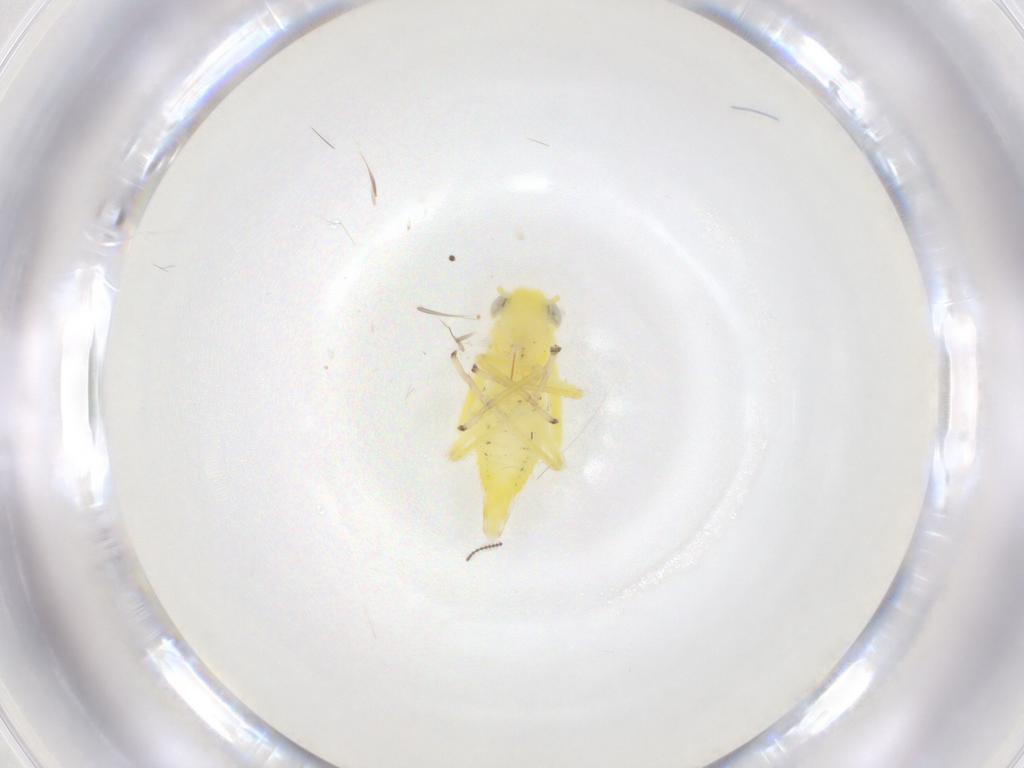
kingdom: Animalia
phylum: Arthropoda
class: Insecta
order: Hemiptera
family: Cicadellidae
